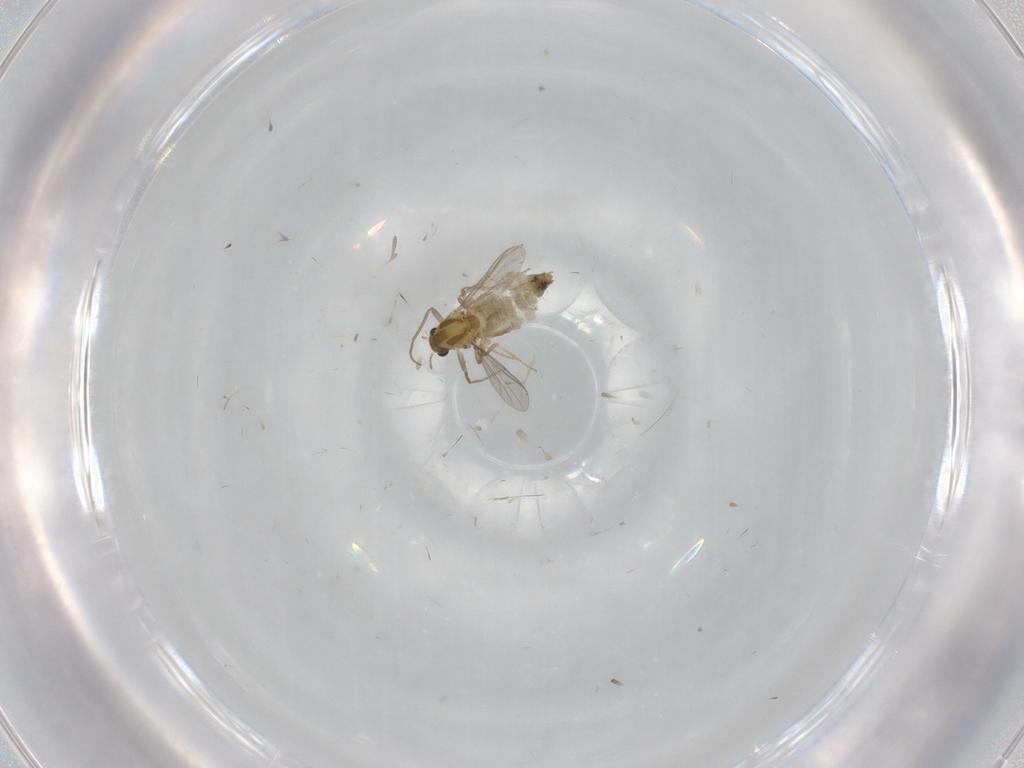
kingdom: Animalia
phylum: Arthropoda
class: Insecta
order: Diptera
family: Chironomidae
